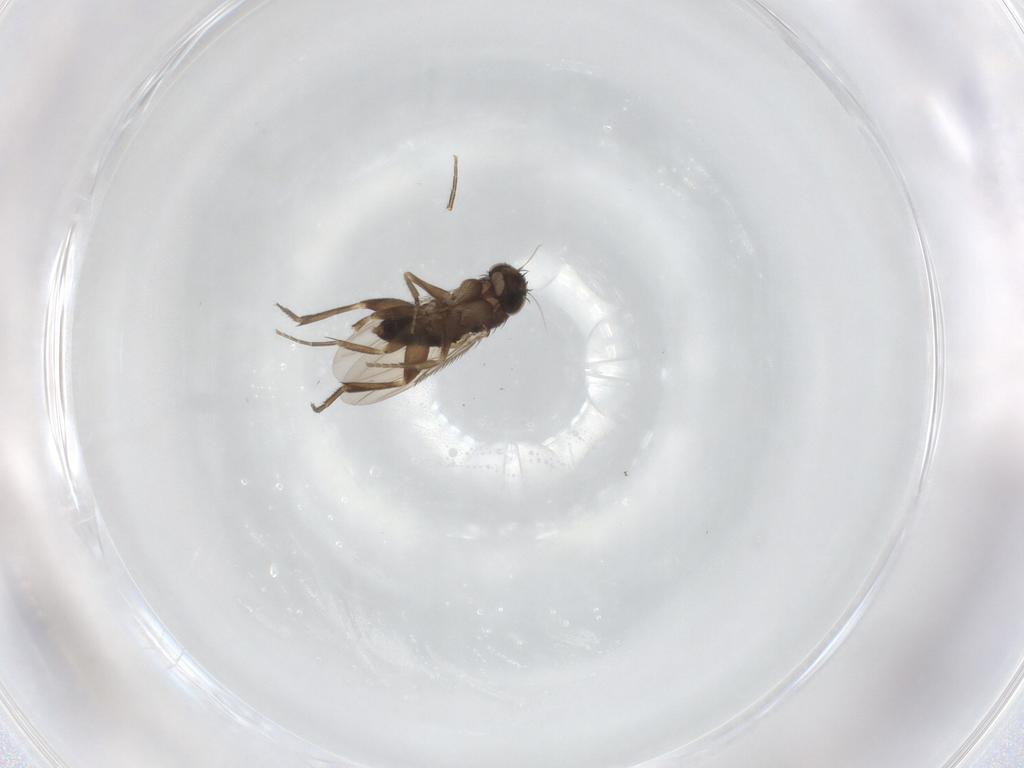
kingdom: Animalia
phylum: Arthropoda
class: Insecta
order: Diptera
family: Phoridae
